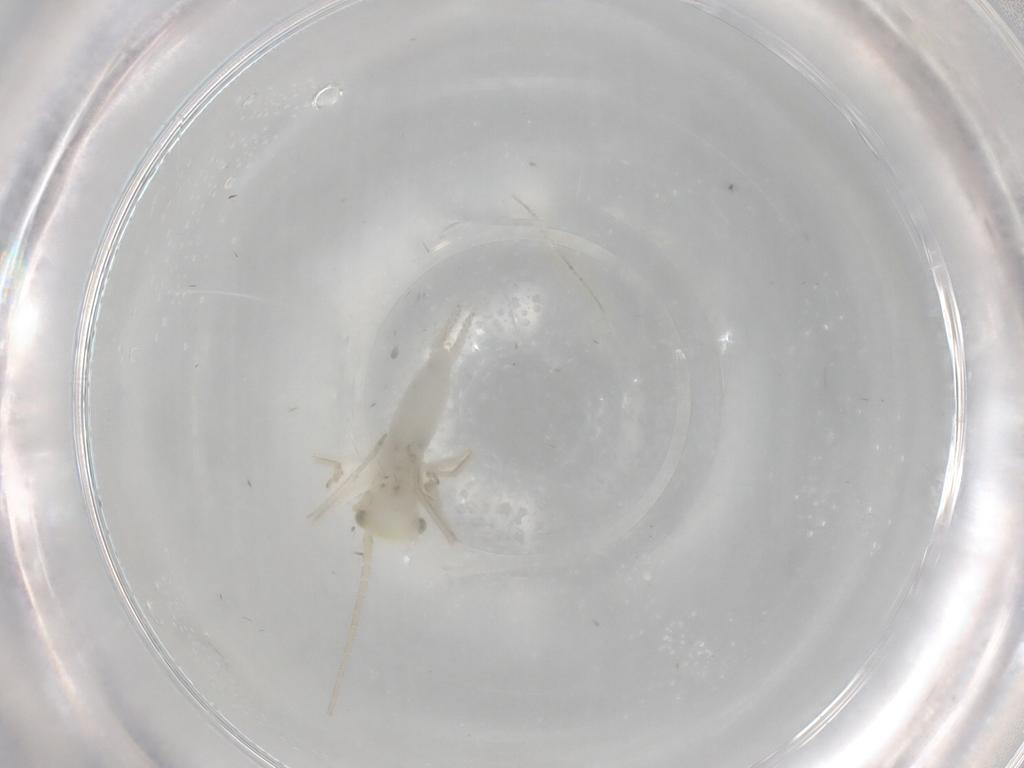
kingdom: Animalia
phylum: Arthropoda
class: Insecta
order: Orthoptera
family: Trigonidiidae
